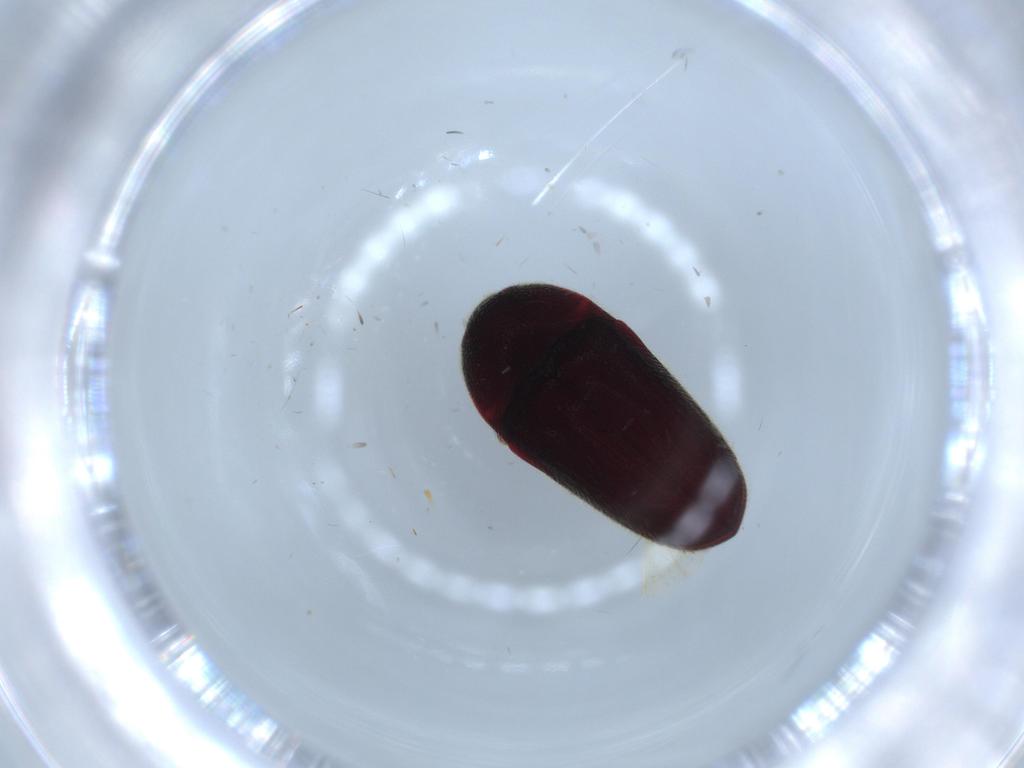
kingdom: Animalia
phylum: Arthropoda
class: Insecta
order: Coleoptera
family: Throscidae
